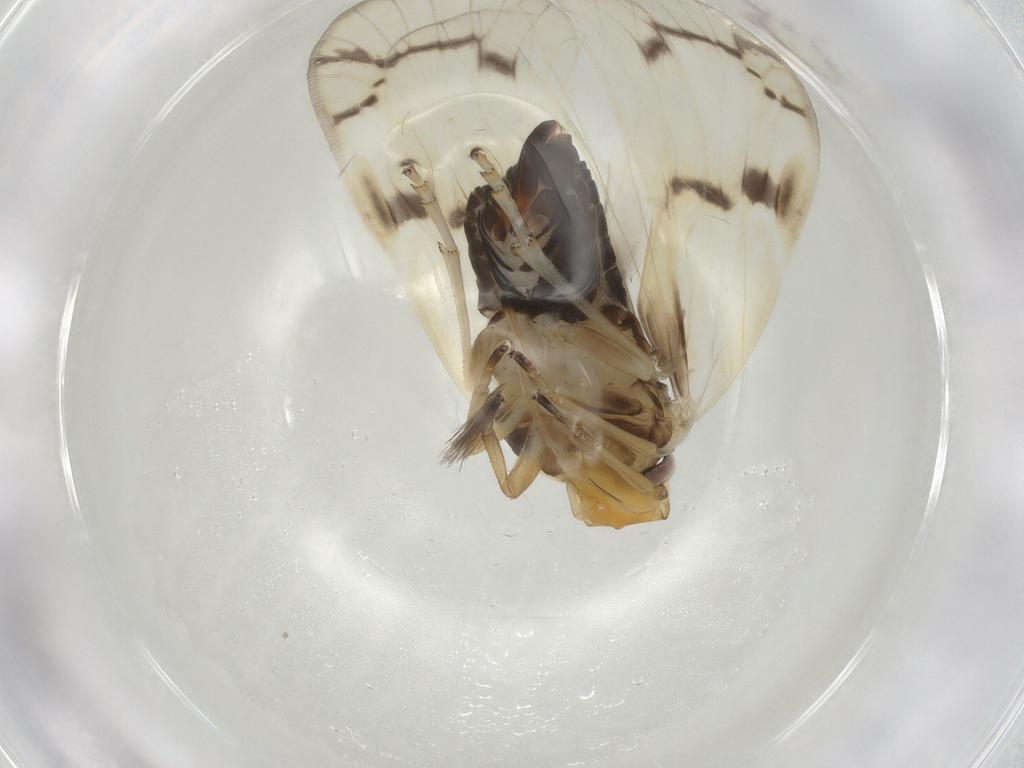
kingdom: Animalia
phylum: Arthropoda
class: Insecta
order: Hemiptera
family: Cixiidae
